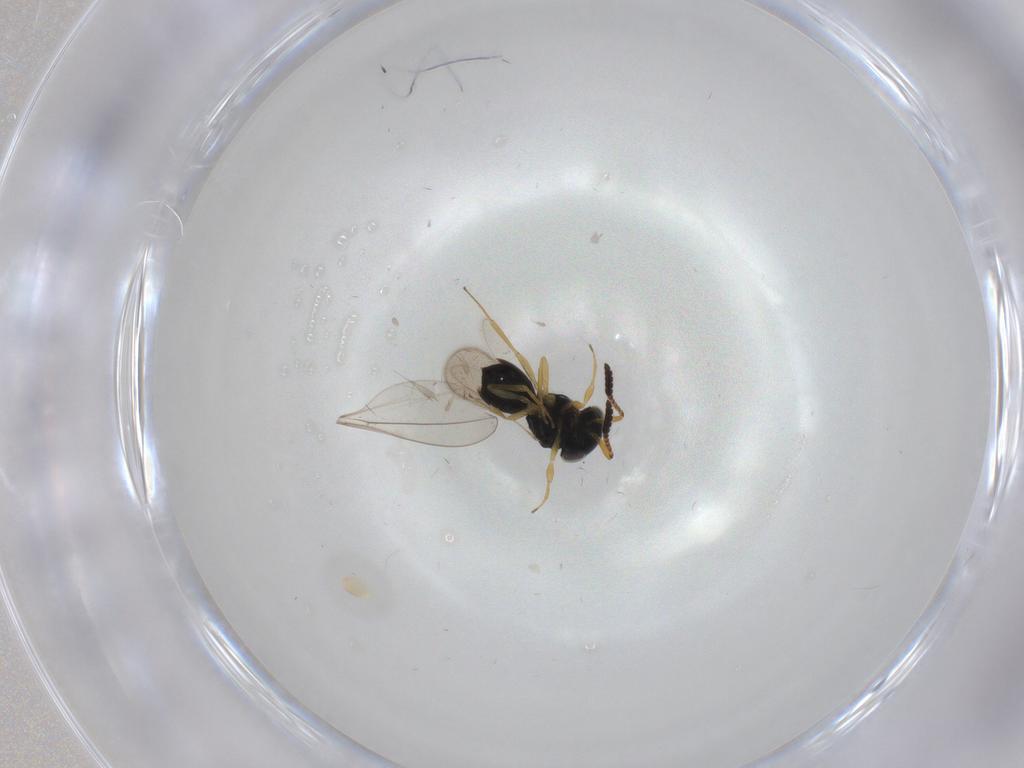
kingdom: Animalia
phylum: Arthropoda
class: Insecta
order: Hymenoptera
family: Scelionidae
